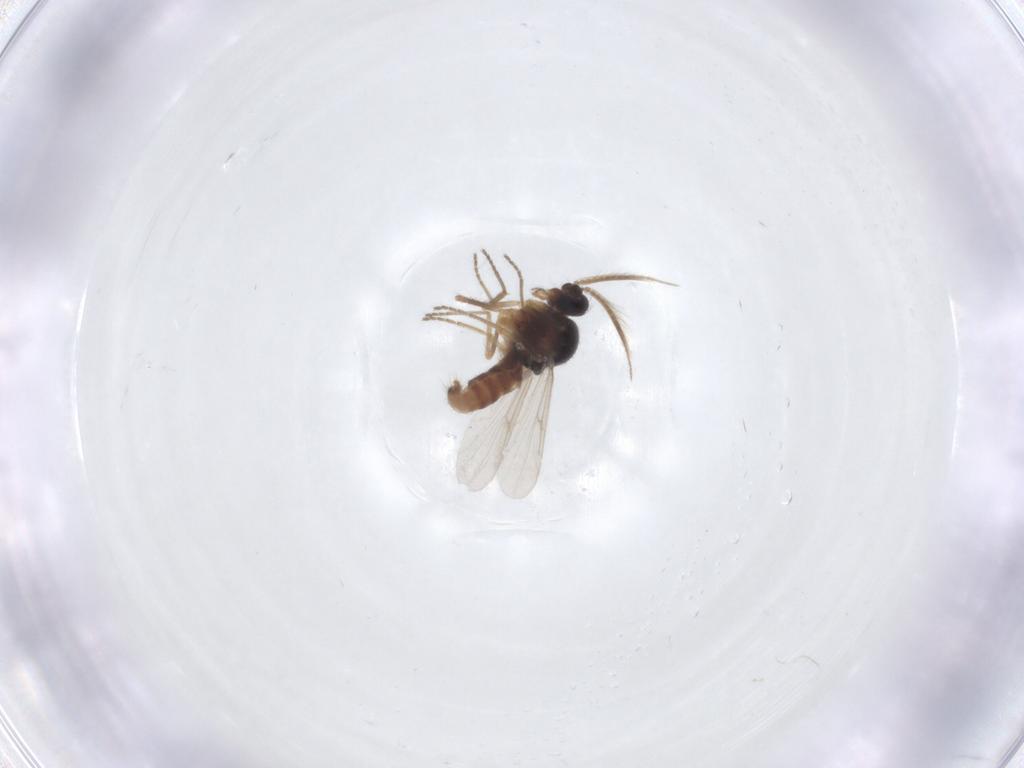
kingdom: Animalia
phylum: Arthropoda
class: Insecta
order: Diptera
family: Ceratopogonidae
